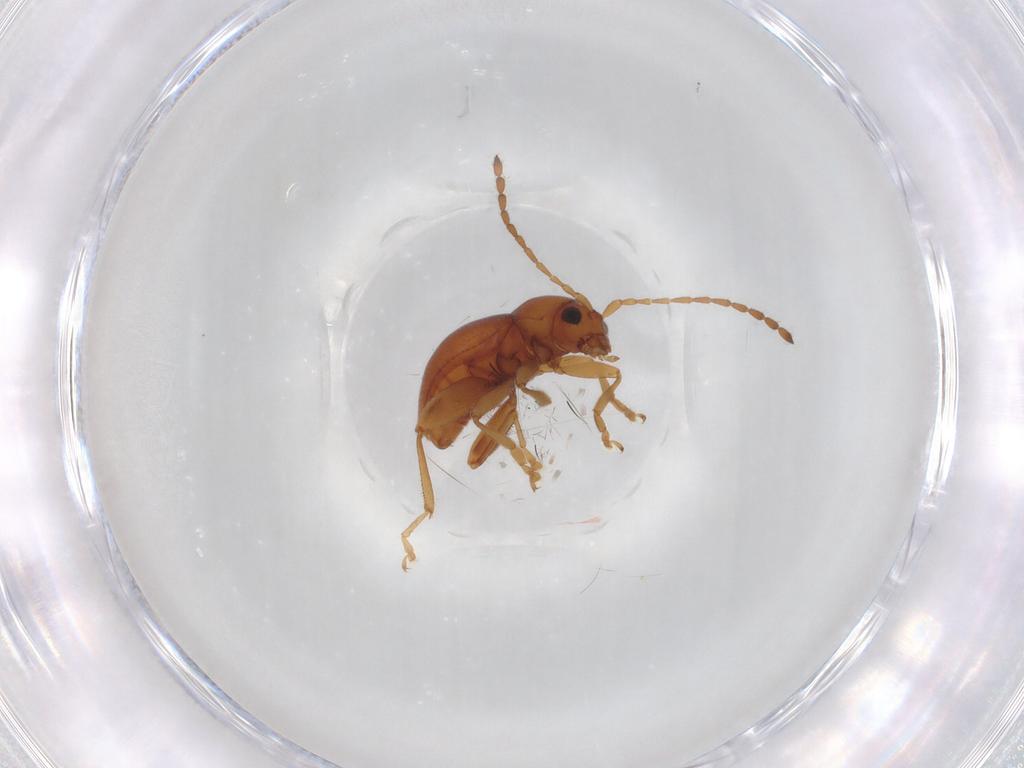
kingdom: Animalia
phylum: Arthropoda
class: Insecta
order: Coleoptera
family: Chrysomelidae
